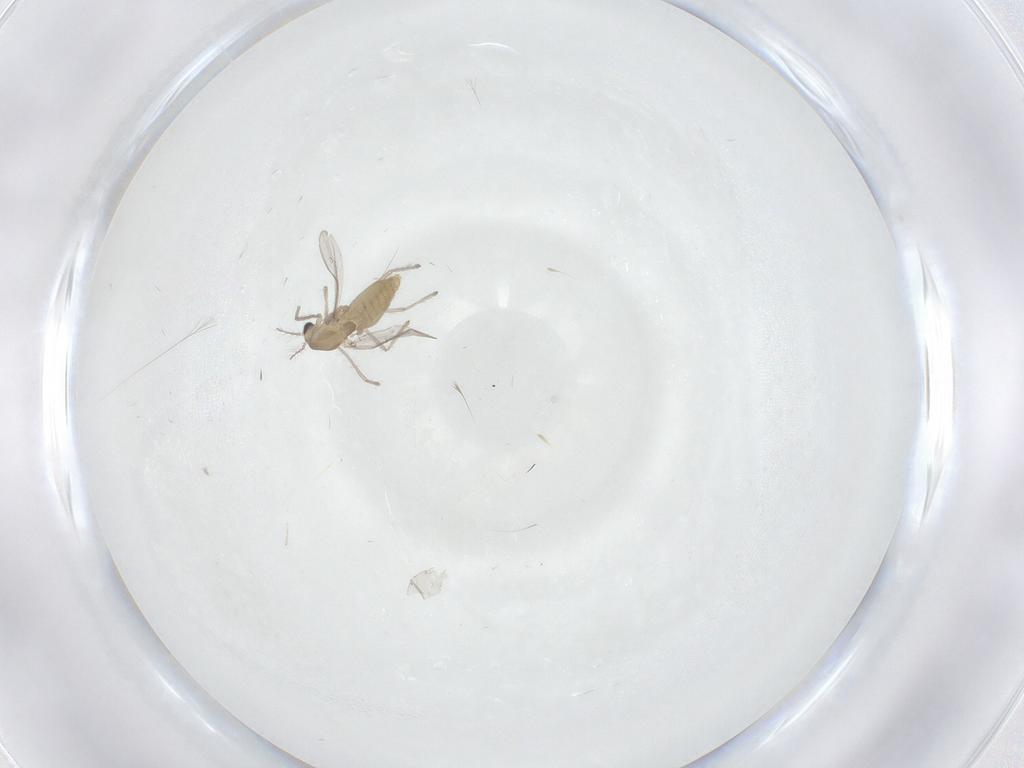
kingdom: Animalia
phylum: Arthropoda
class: Insecta
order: Diptera
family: Chironomidae
